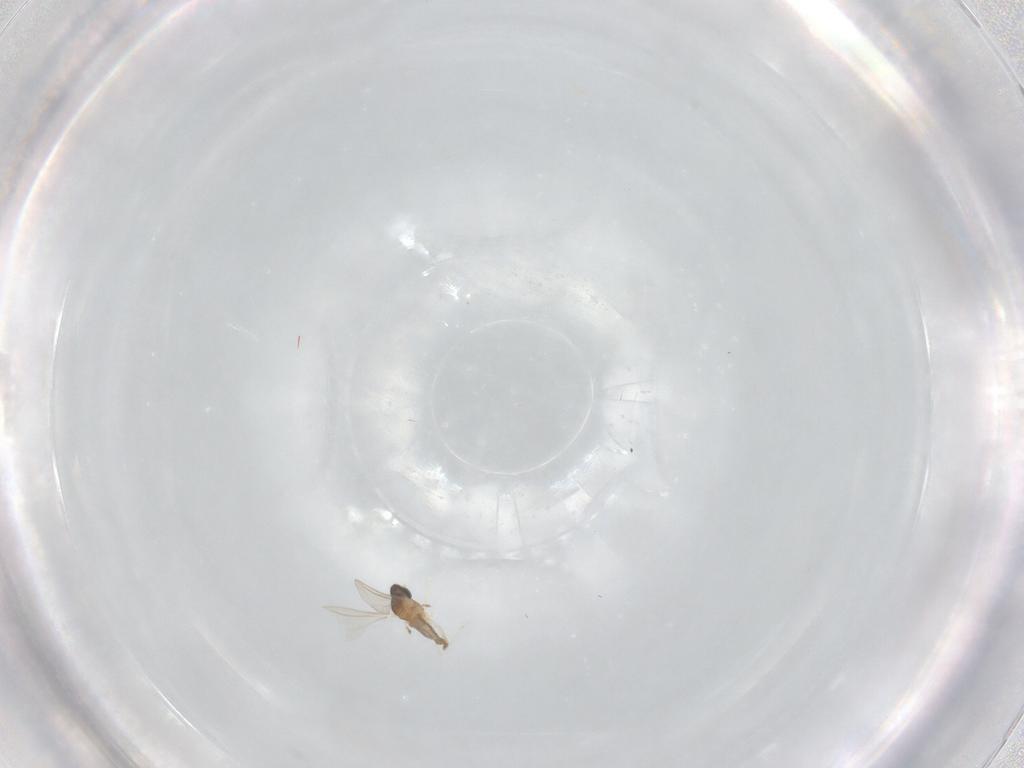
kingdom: Animalia
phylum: Arthropoda
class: Insecta
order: Diptera
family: Cecidomyiidae
